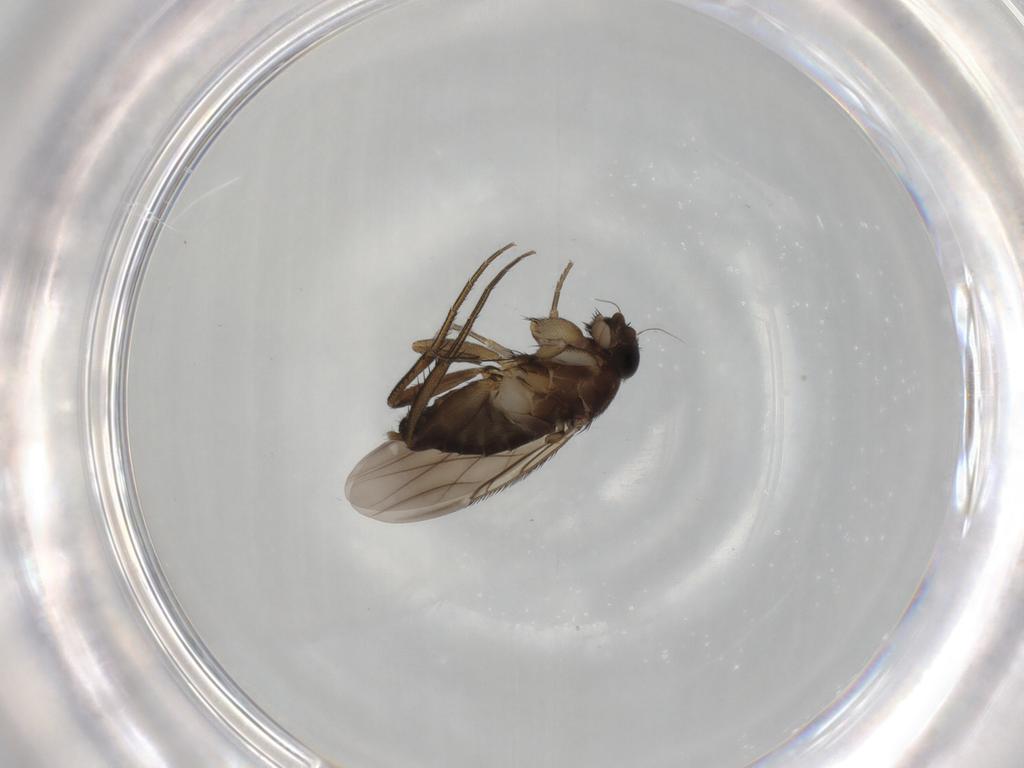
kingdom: Animalia
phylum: Arthropoda
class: Insecta
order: Diptera
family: Phoridae
